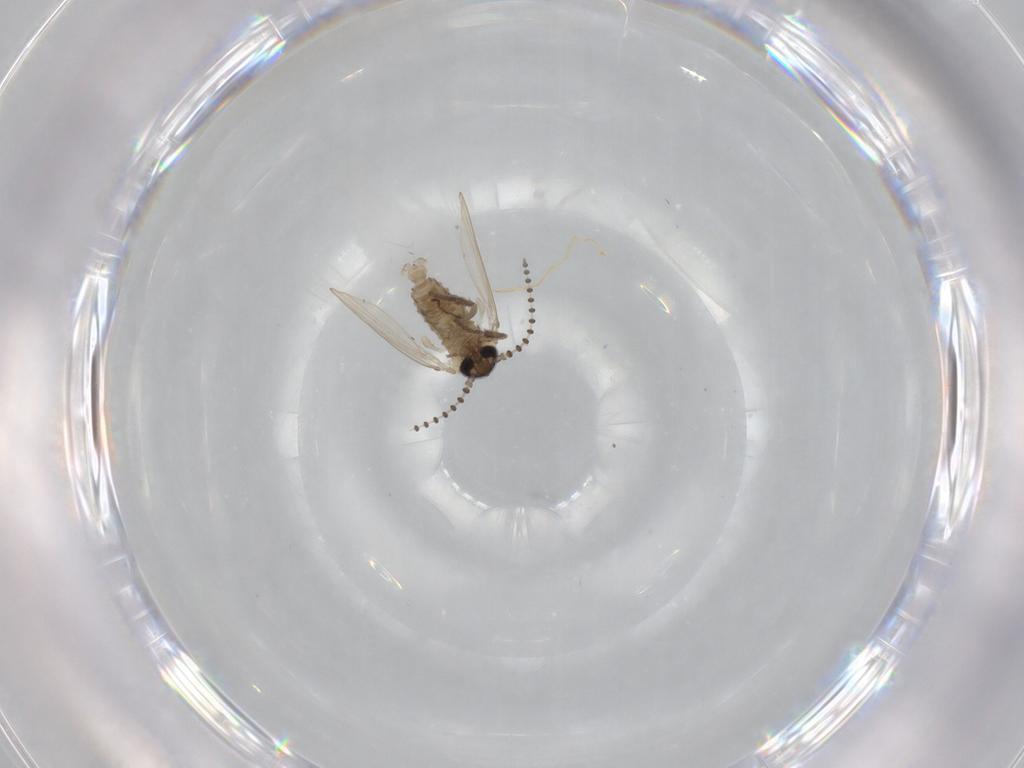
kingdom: Animalia
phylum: Arthropoda
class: Insecta
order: Diptera
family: Psychodidae
